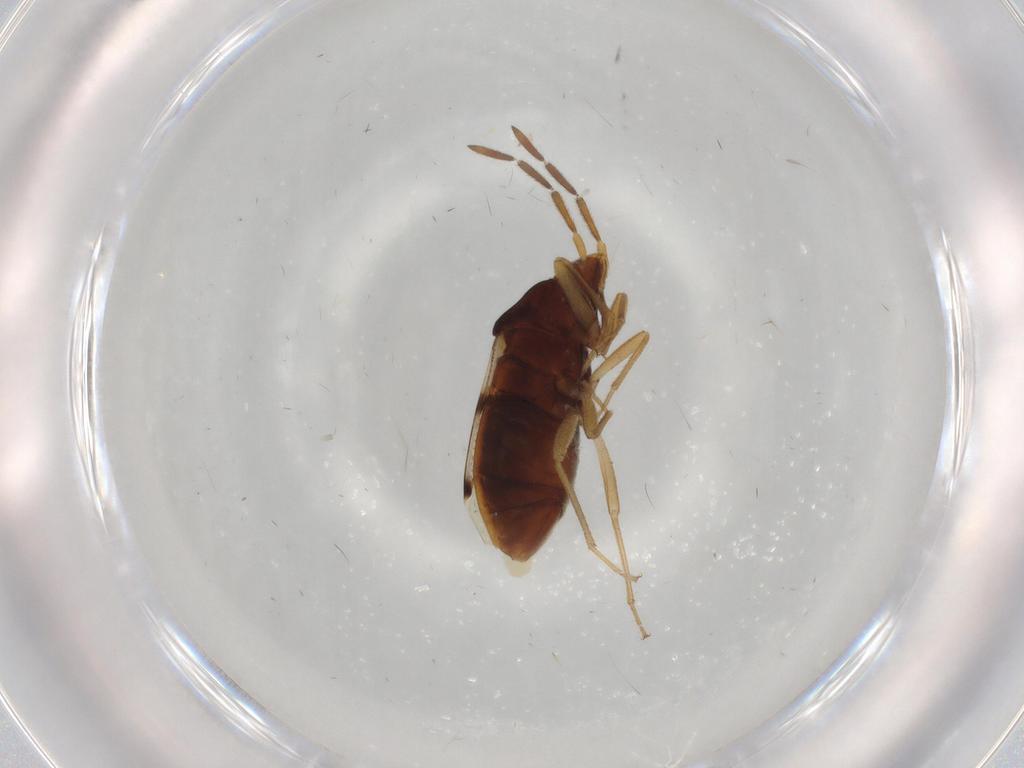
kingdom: Animalia
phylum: Arthropoda
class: Insecta
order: Hemiptera
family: Rhyparochromidae
